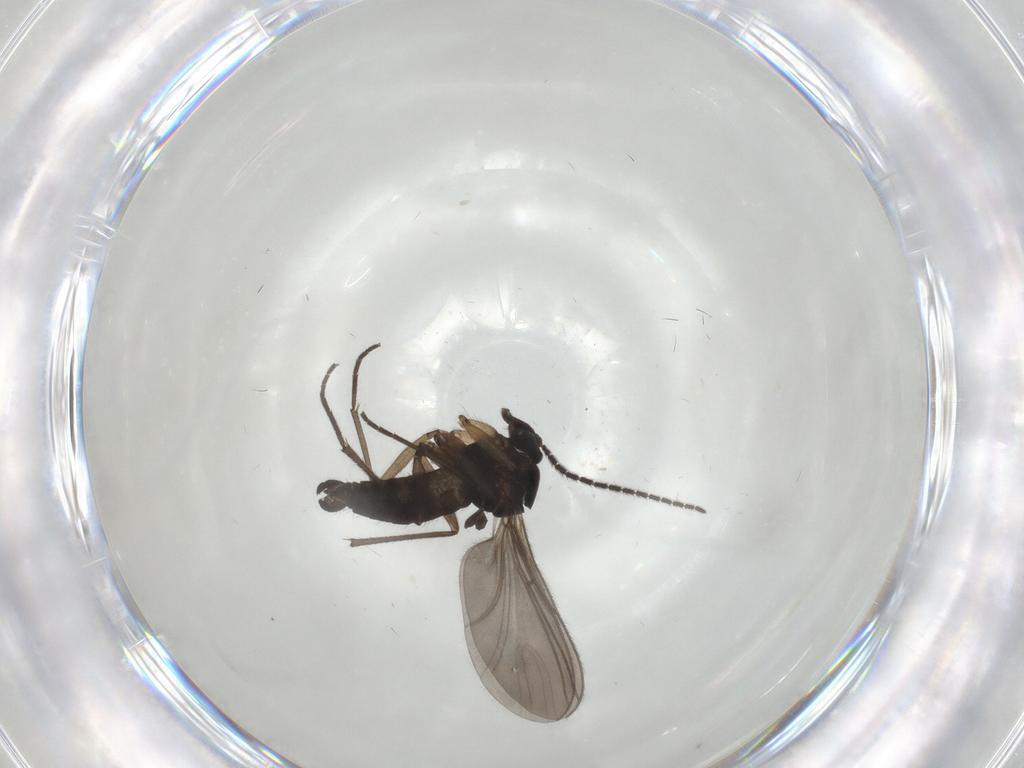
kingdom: Animalia
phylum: Arthropoda
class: Insecta
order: Diptera
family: Sciaridae
